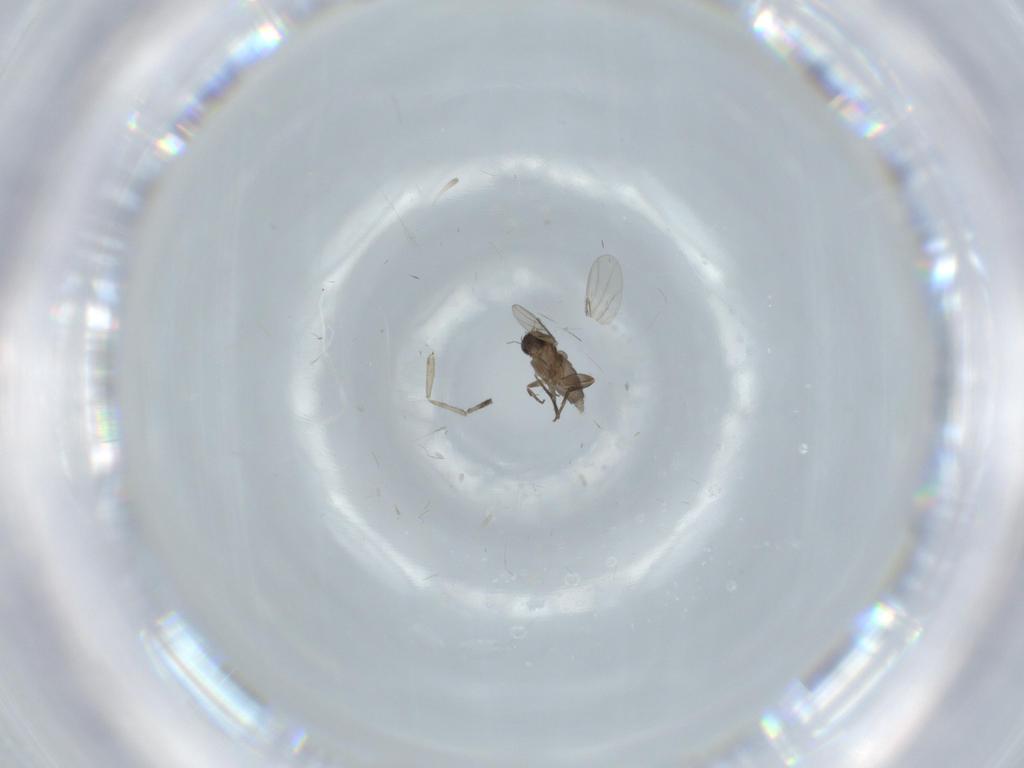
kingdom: Animalia
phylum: Arthropoda
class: Insecta
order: Diptera
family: Phoridae
